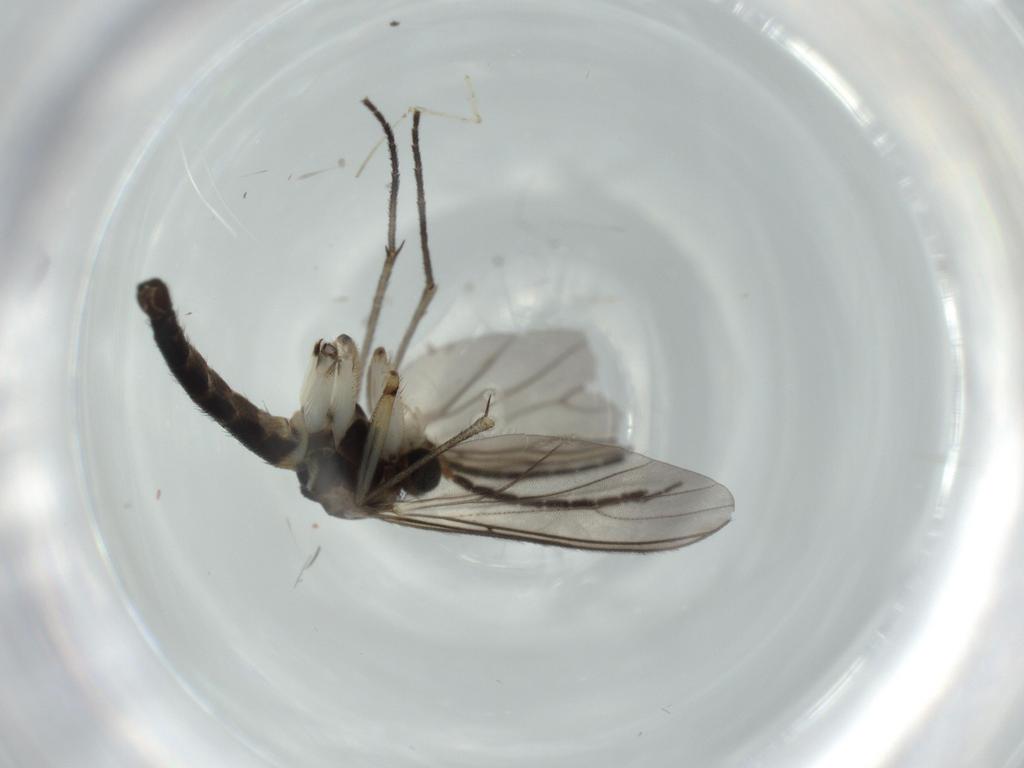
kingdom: Animalia
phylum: Arthropoda
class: Insecta
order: Diptera
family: Sciaridae
